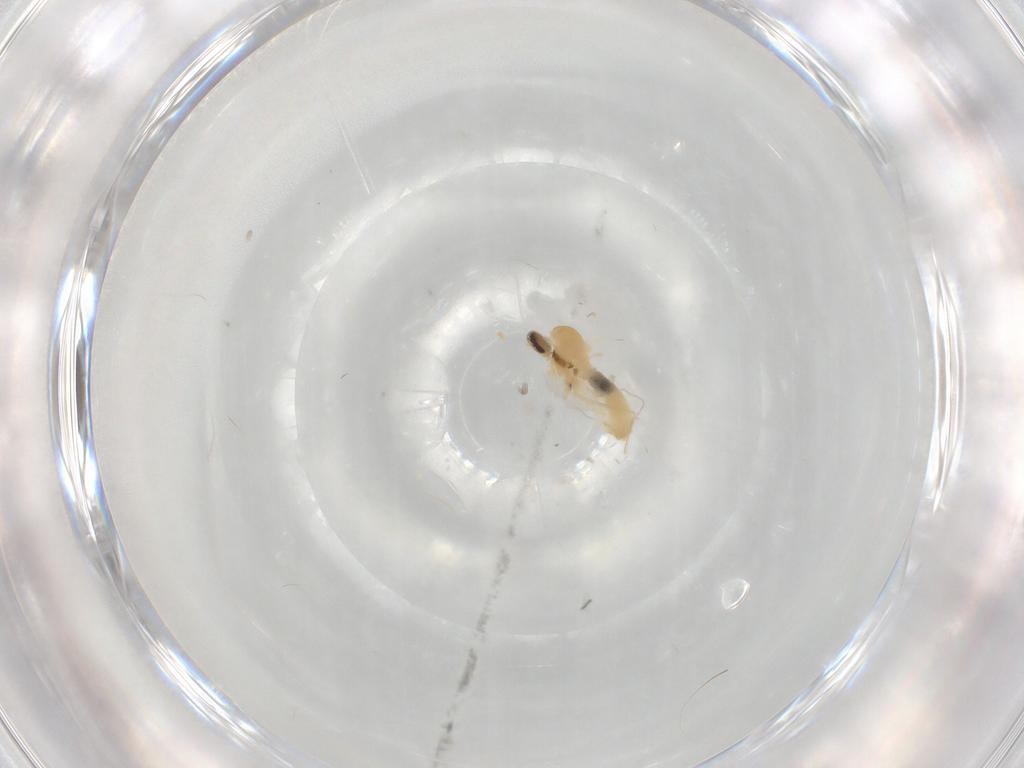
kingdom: Animalia
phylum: Arthropoda
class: Insecta
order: Diptera
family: Cecidomyiidae
